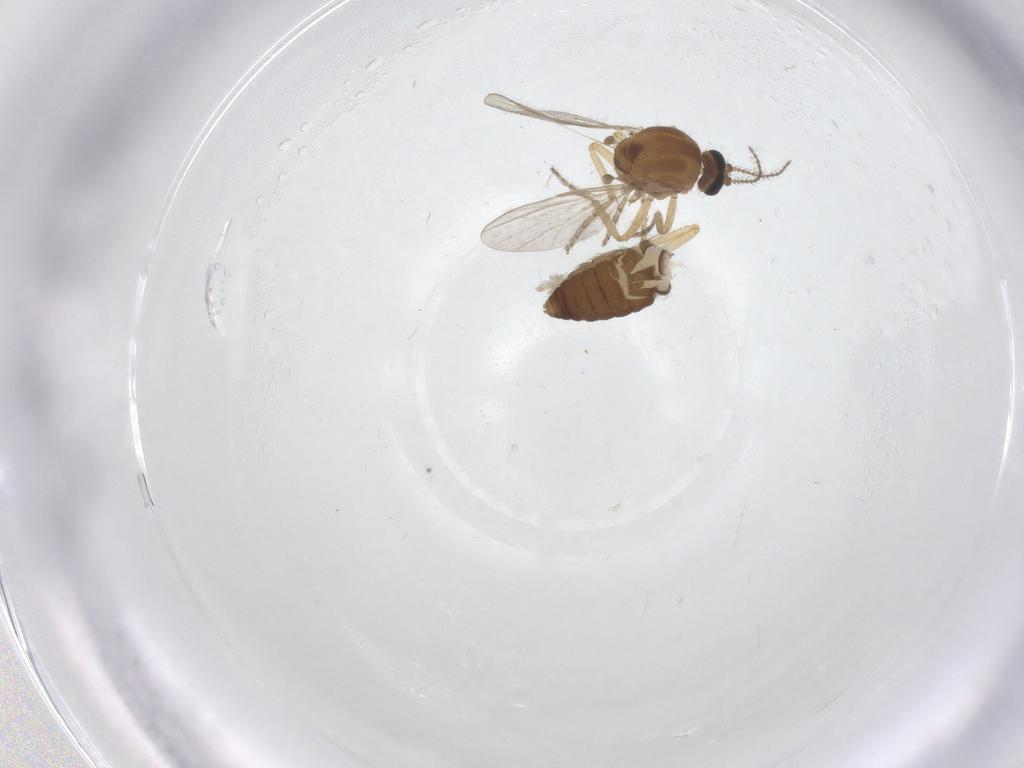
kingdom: Animalia
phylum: Arthropoda
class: Insecta
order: Diptera
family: Ceratopogonidae
